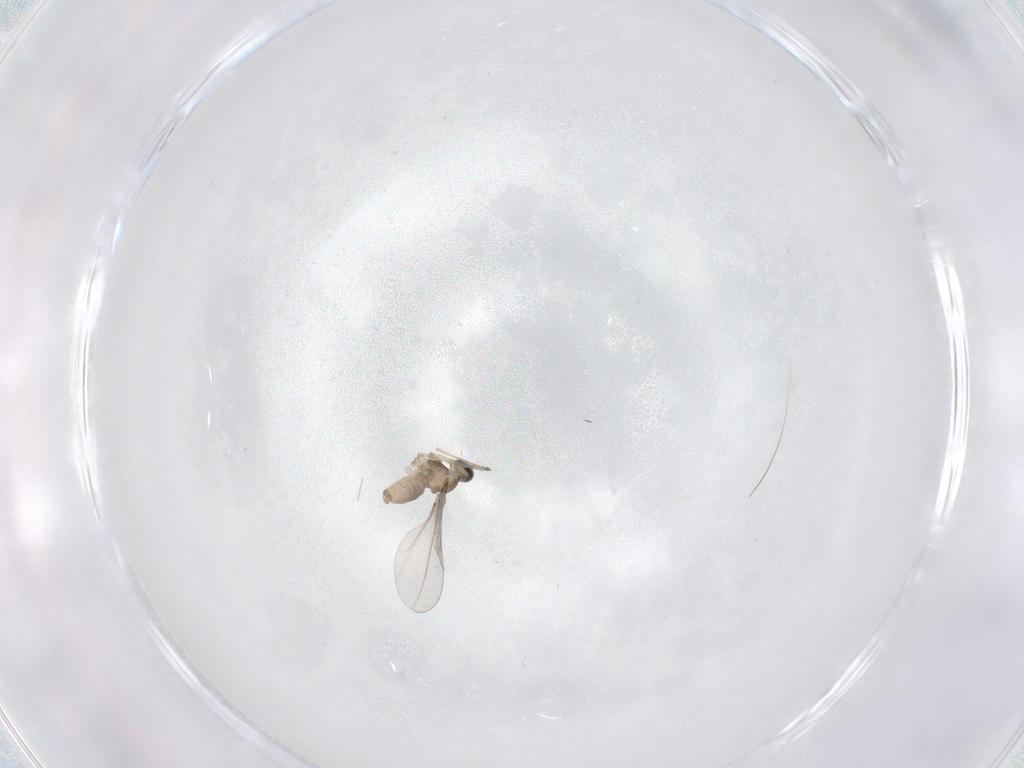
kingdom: Animalia
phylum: Arthropoda
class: Insecta
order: Diptera
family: Cecidomyiidae
